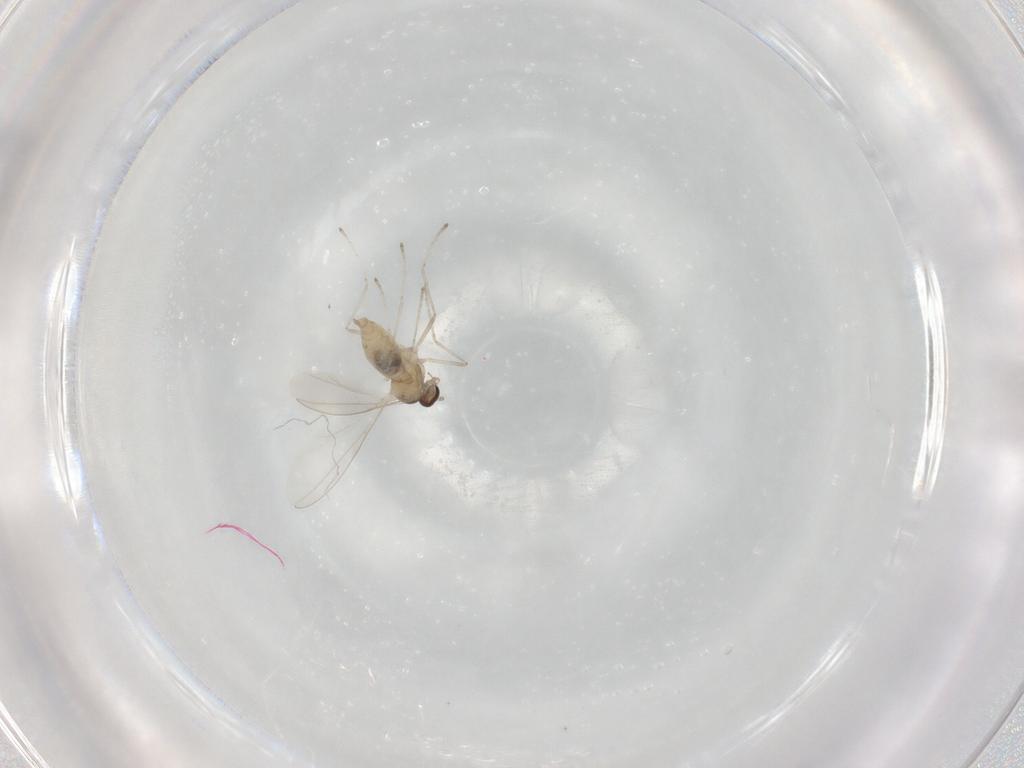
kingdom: Animalia
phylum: Arthropoda
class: Insecta
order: Diptera
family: Cecidomyiidae
